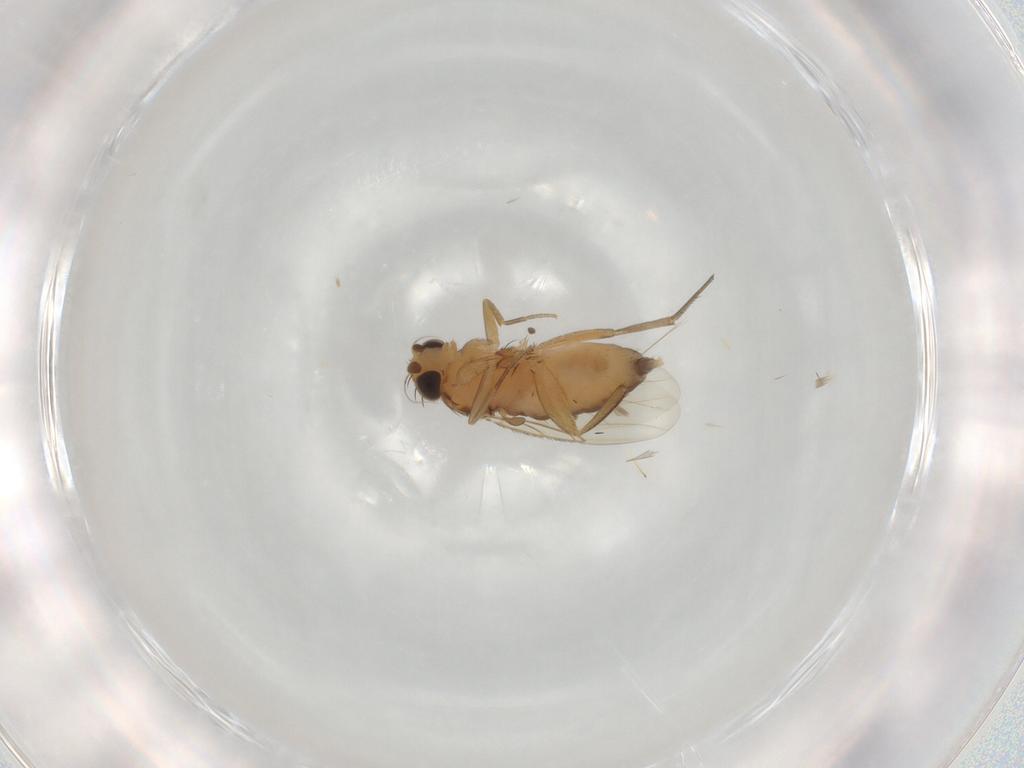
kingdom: Animalia
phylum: Arthropoda
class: Insecta
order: Diptera
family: Phoridae
